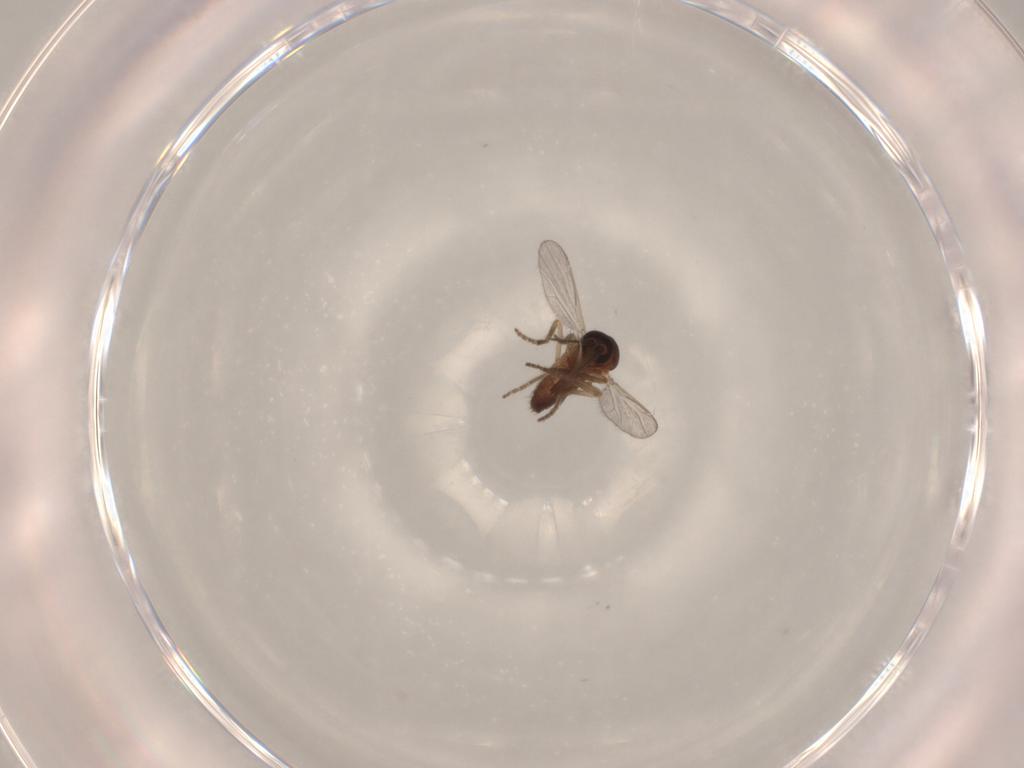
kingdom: Animalia
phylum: Arthropoda
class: Insecta
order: Diptera
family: Ceratopogonidae
